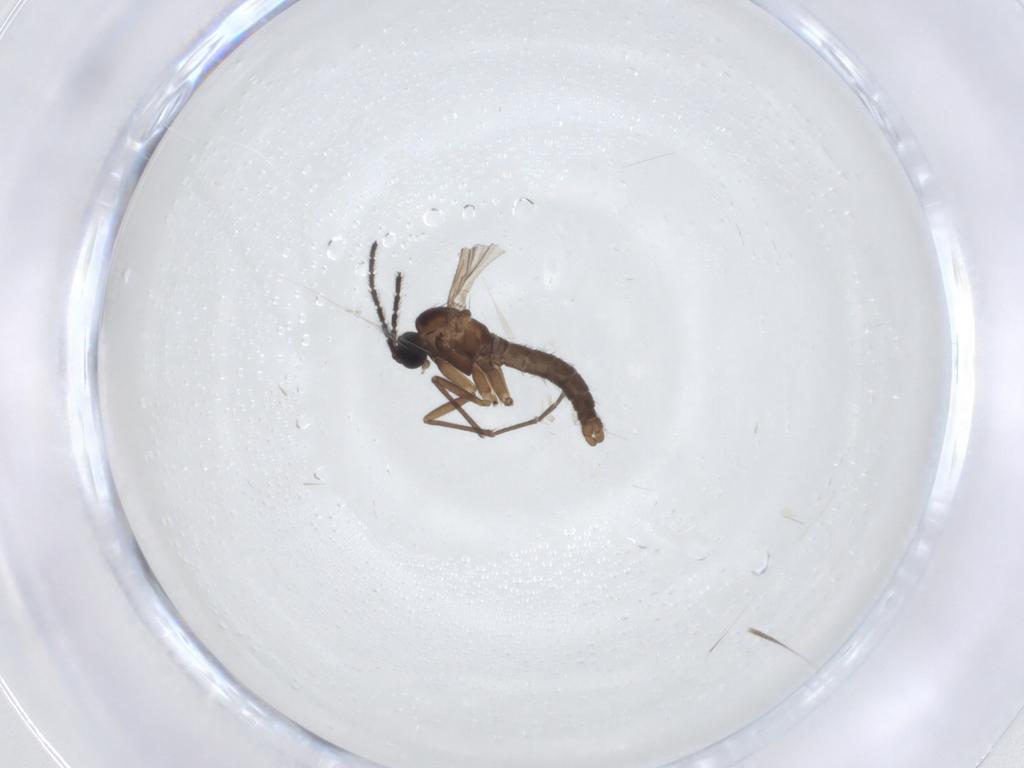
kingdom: Animalia
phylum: Arthropoda
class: Insecta
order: Diptera
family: Sciaridae
